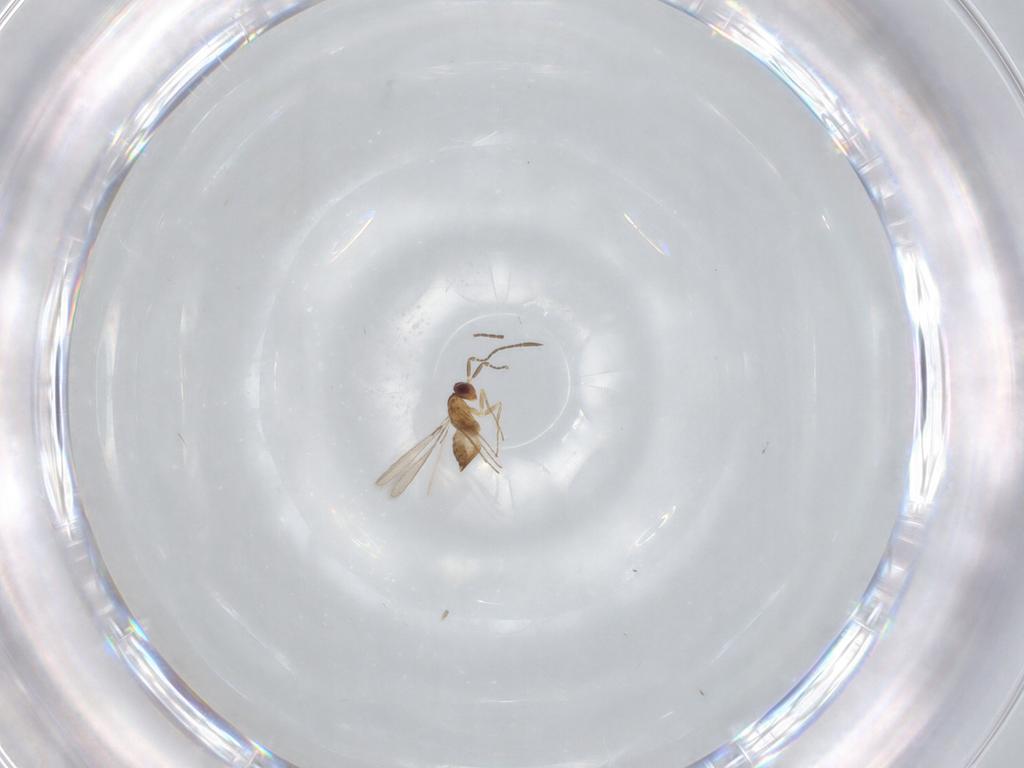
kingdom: Animalia
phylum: Arthropoda
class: Insecta
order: Hymenoptera
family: Mymaridae
